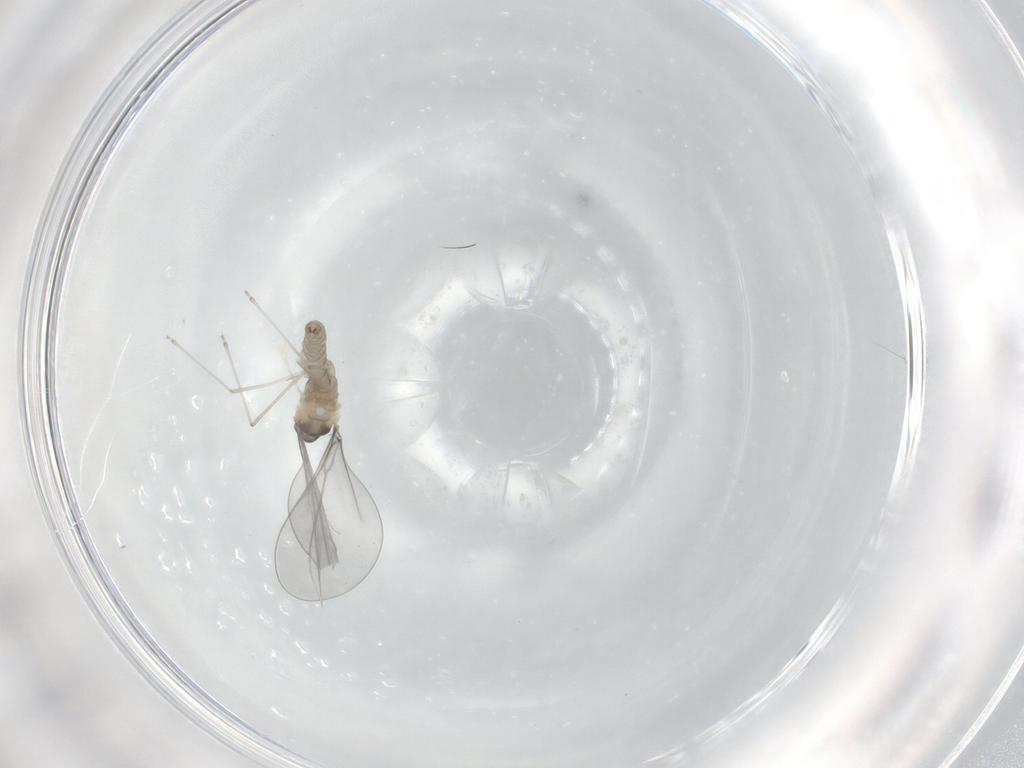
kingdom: Animalia
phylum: Arthropoda
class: Insecta
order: Diptera
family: Cecidomyiidae
